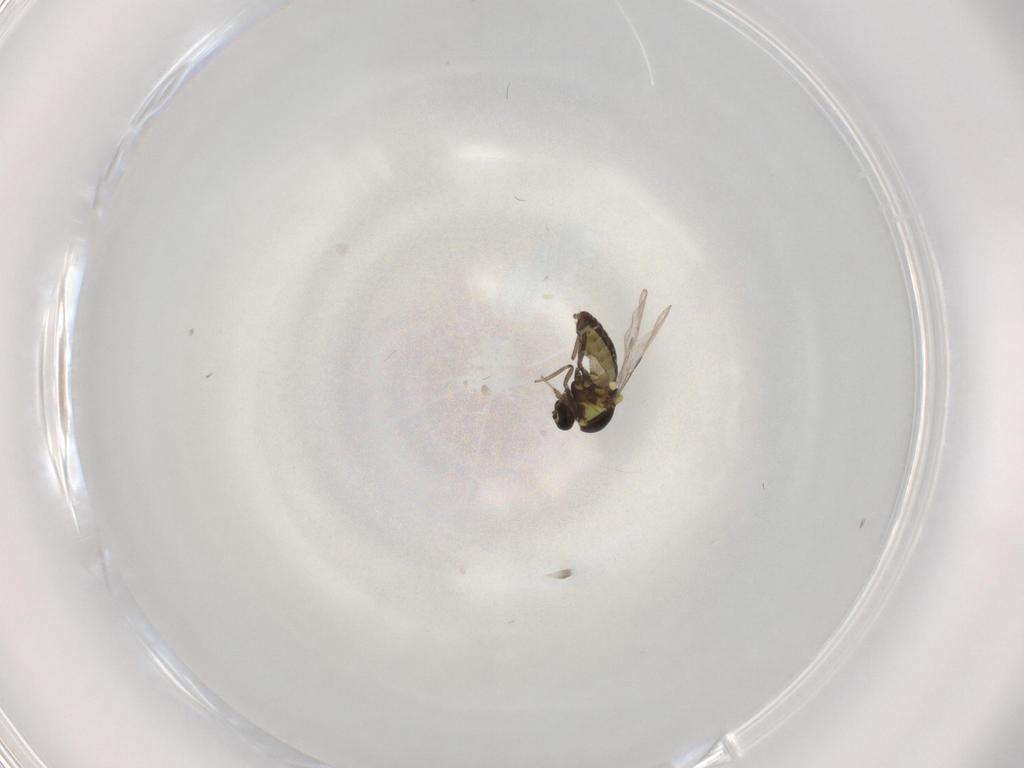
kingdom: Animalia
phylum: Arthropoda
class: Insecta
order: Diptera
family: Ceratopogonidae
